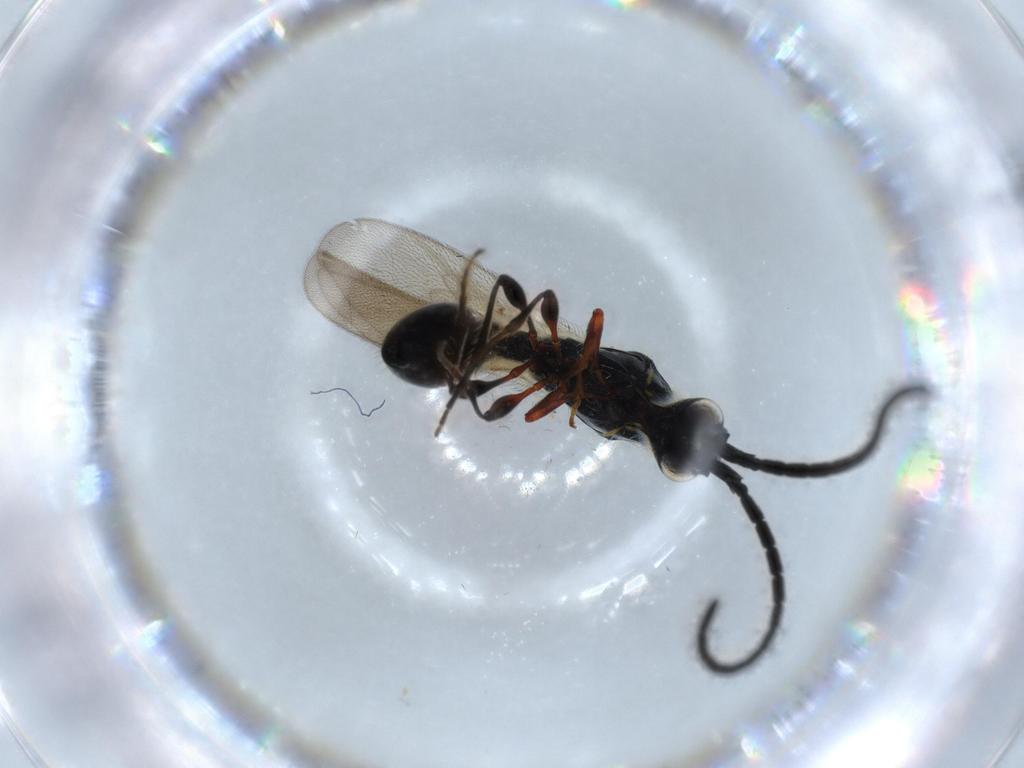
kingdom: Animalia
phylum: Arthropoda
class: Insecta
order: Hymenoptera
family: Diapriidae
